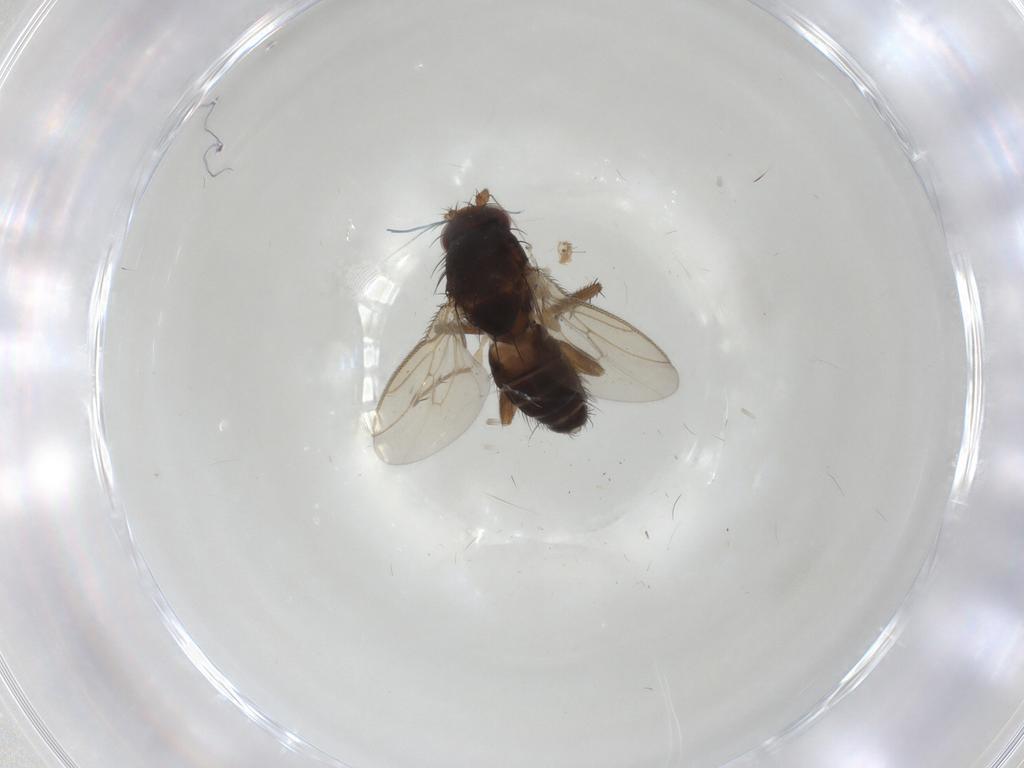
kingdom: Animalia
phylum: Arthropoda
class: Insecta
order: Diptera
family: Sphaeroceridae
